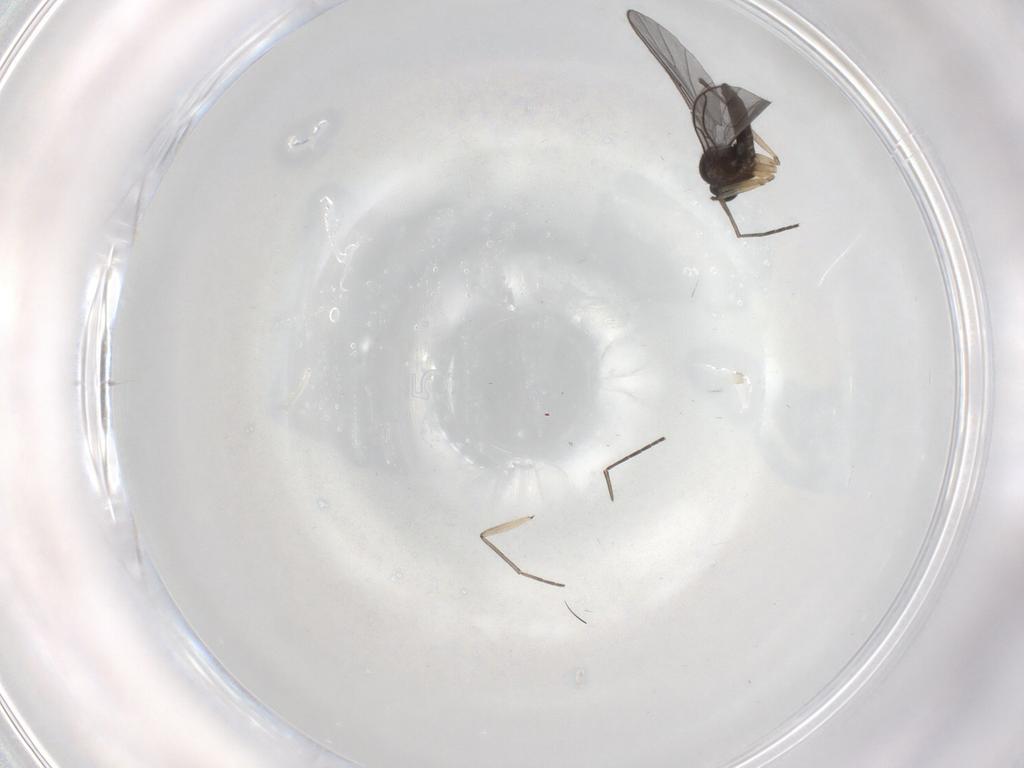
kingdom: Animalia
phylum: Arthropoda
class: Insecta
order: Diptera
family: Sciaridae
